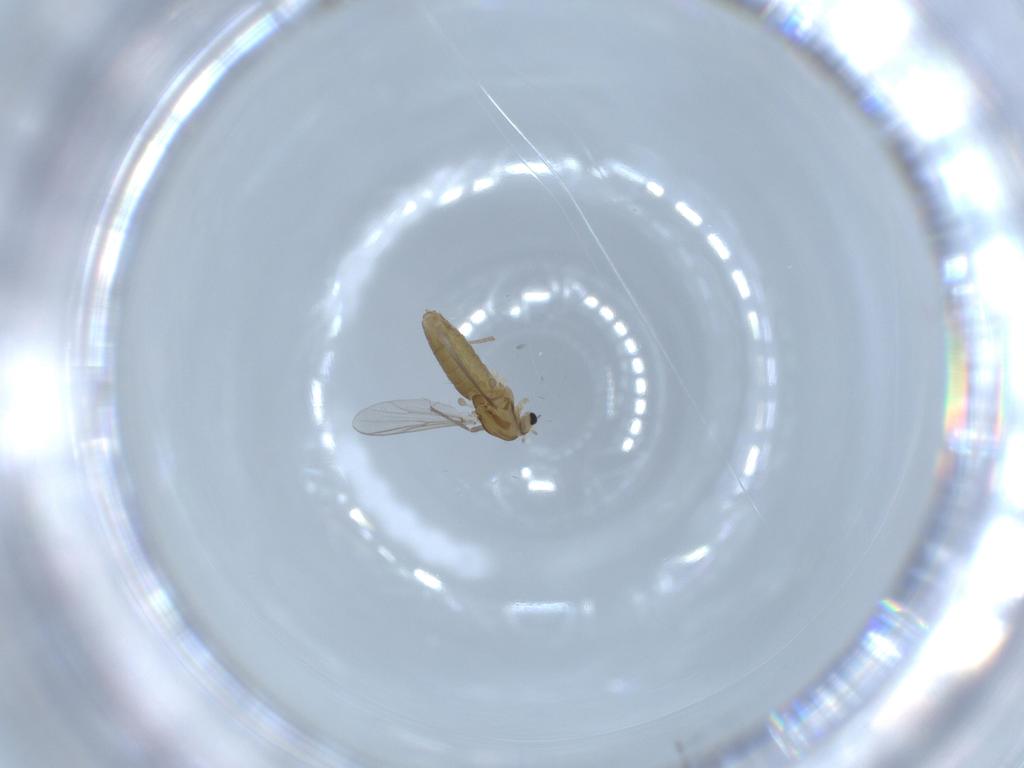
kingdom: Animalia
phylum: Arthropoda
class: Insecta
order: Diptera
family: Chironomidae
